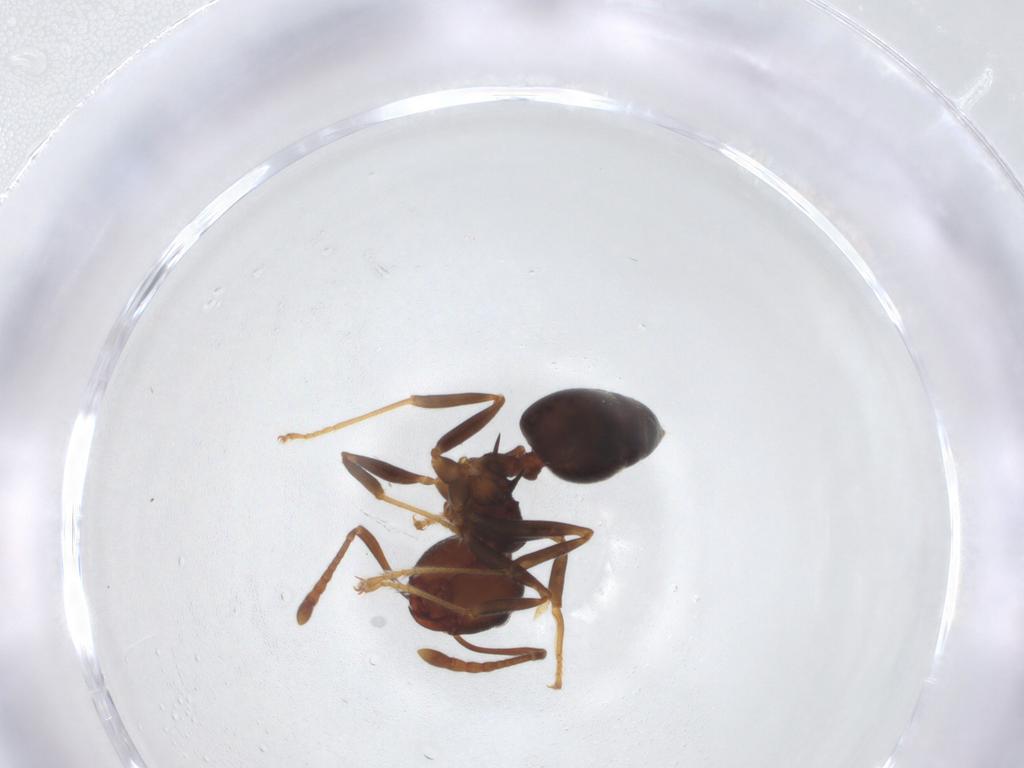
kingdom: Animalia
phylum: Arthropoda
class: Insecta
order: Hymenoptera
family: Formicidae
